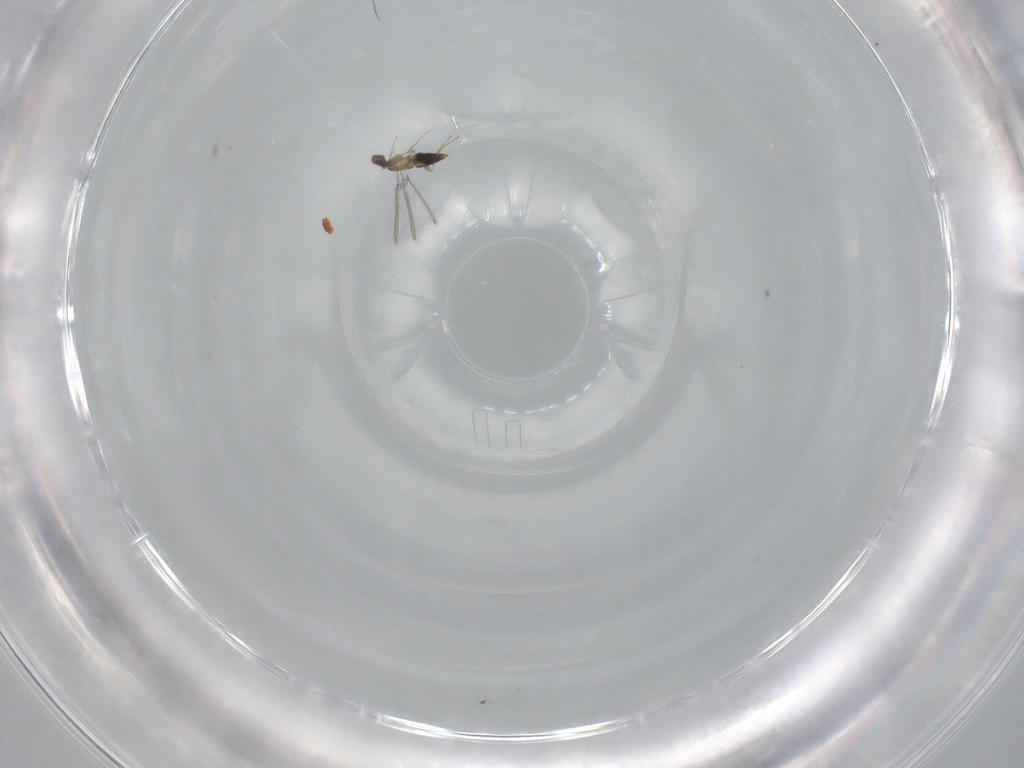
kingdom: Animalia
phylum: Arthropoda
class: Insecta
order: Hymenoptera
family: Mymaridae
